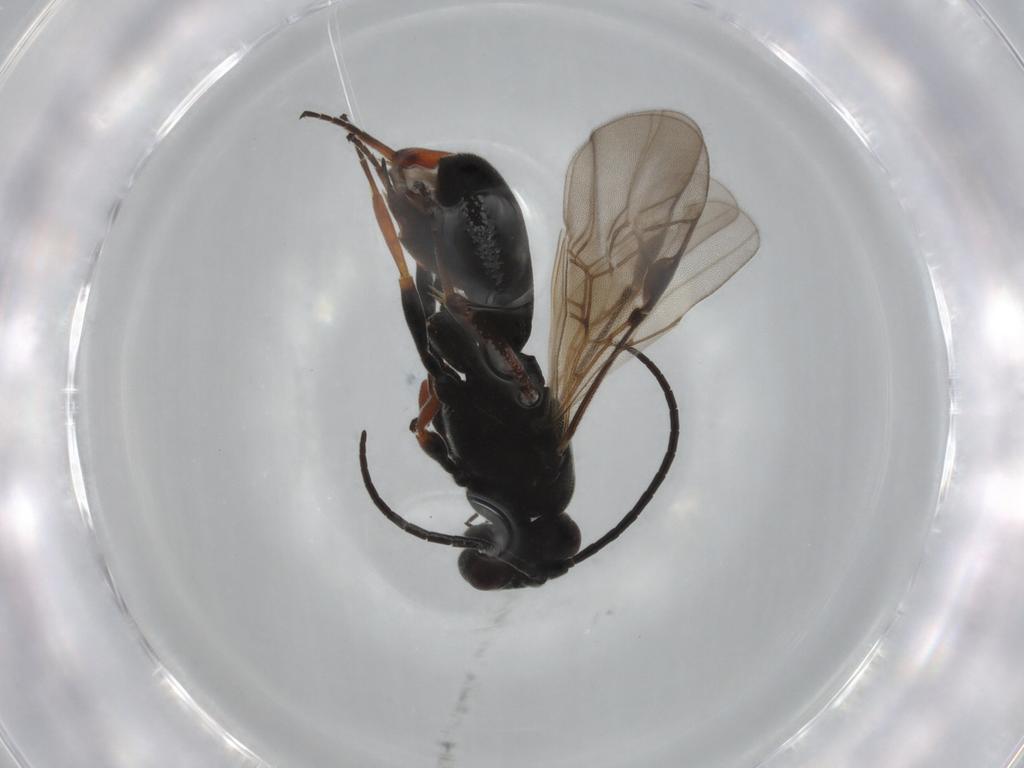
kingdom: Animalia
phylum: Arthropoda
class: Insecta
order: Hymenoptera
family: Braconidae
